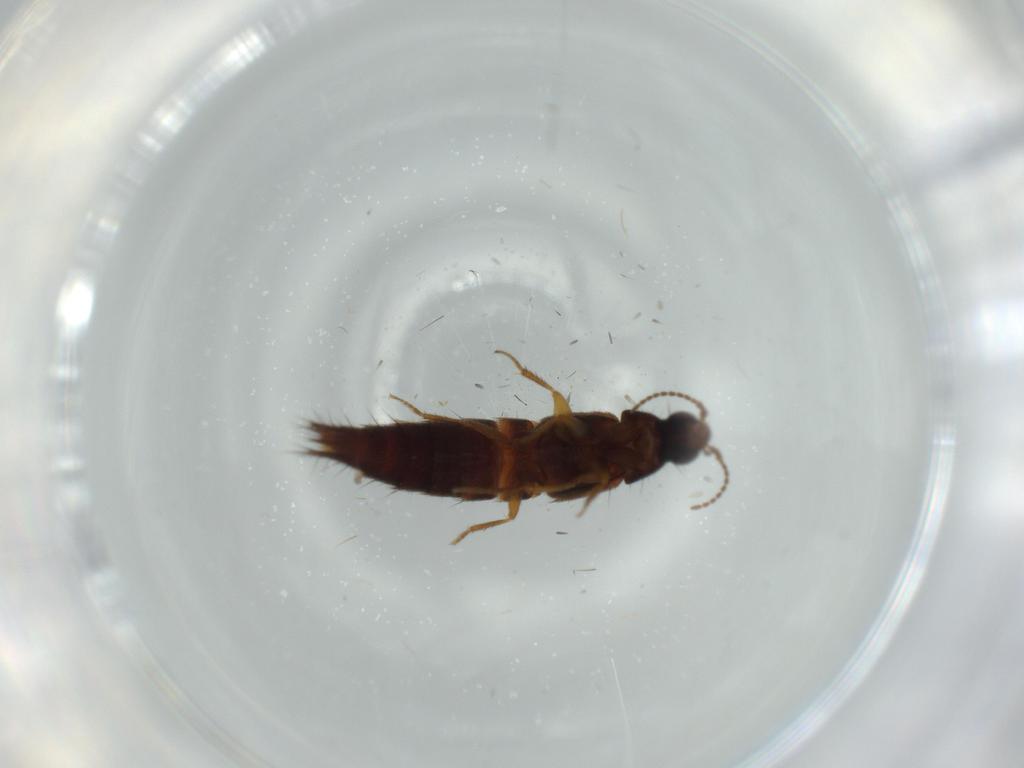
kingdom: Animalia
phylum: Arthropoda
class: Insecta
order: Coleoptera
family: Staphylinidae
